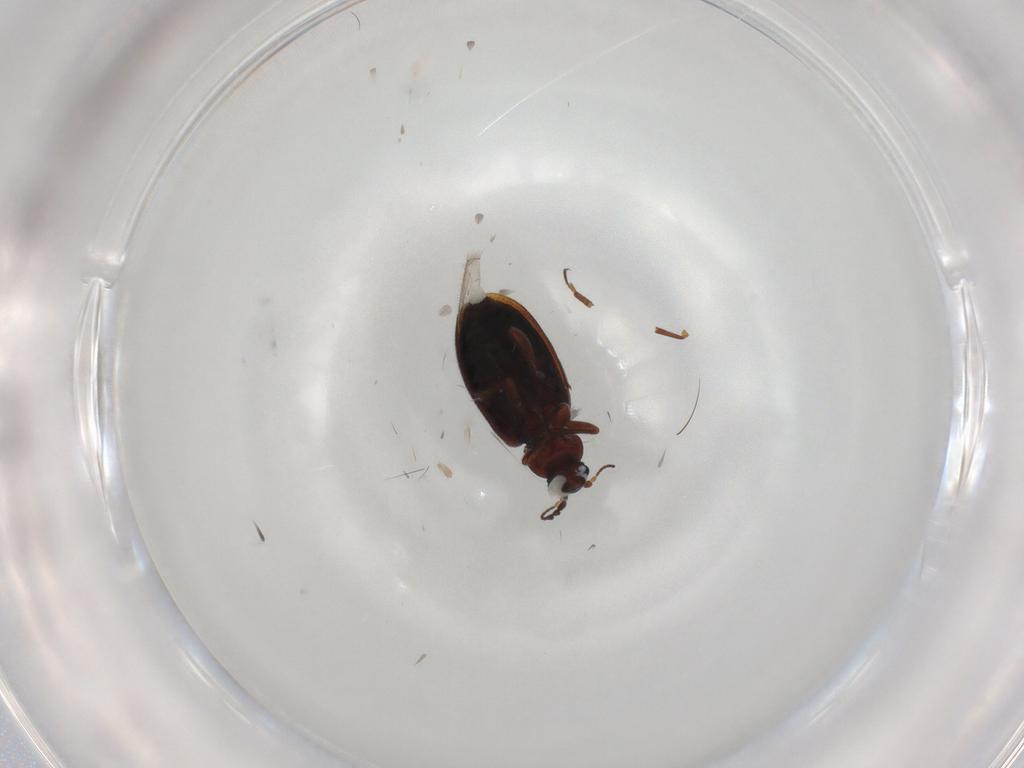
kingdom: Animalia
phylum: Arthropoda
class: Insecta
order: Coleoptera
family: Latridiidae
